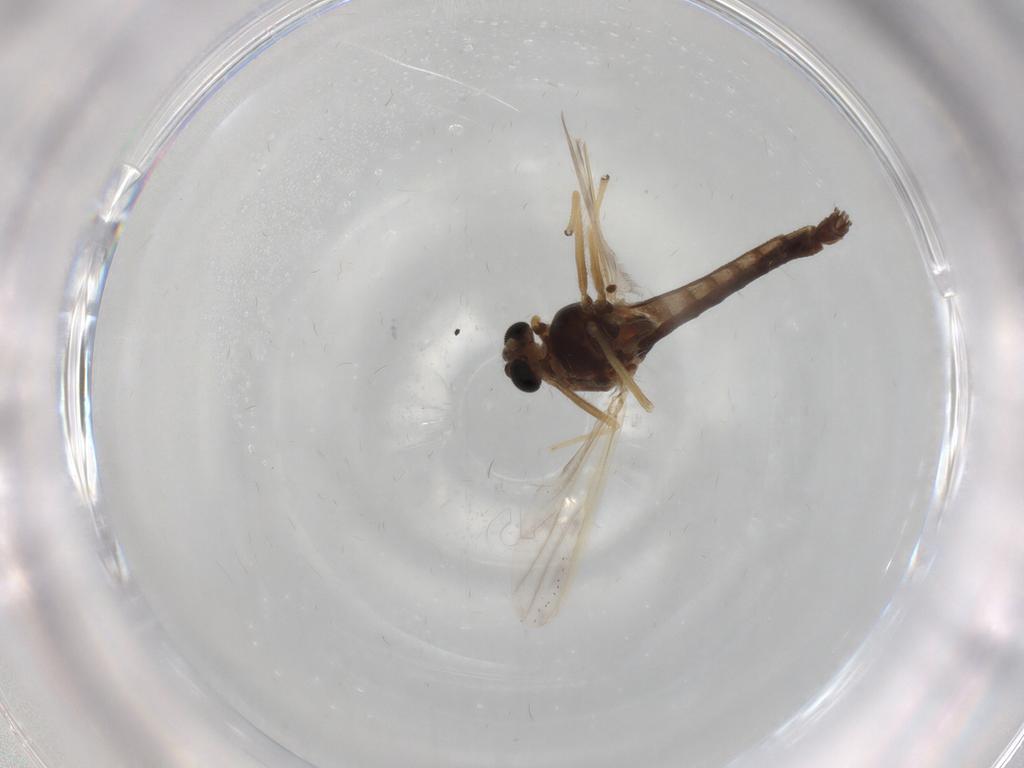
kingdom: Animalia
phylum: Arthropoda
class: Insecta
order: Diptera
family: Chironomidae
